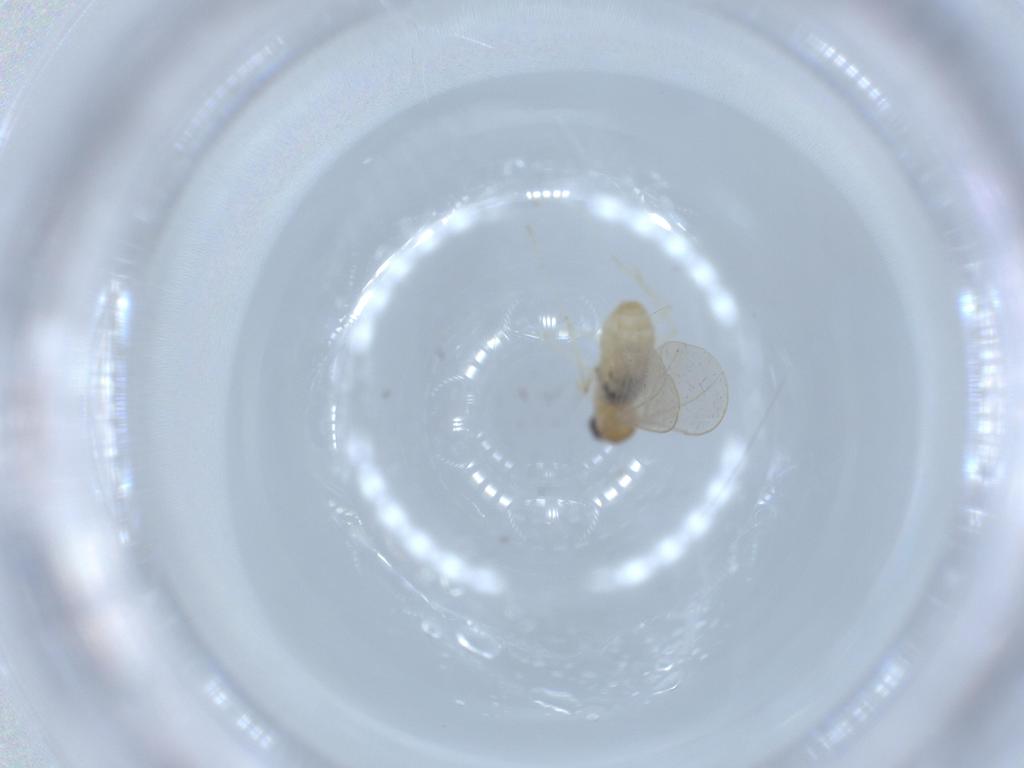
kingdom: Animalia
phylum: Arthropoda
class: Insecta
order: Diptera
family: Cecidomyiidae
